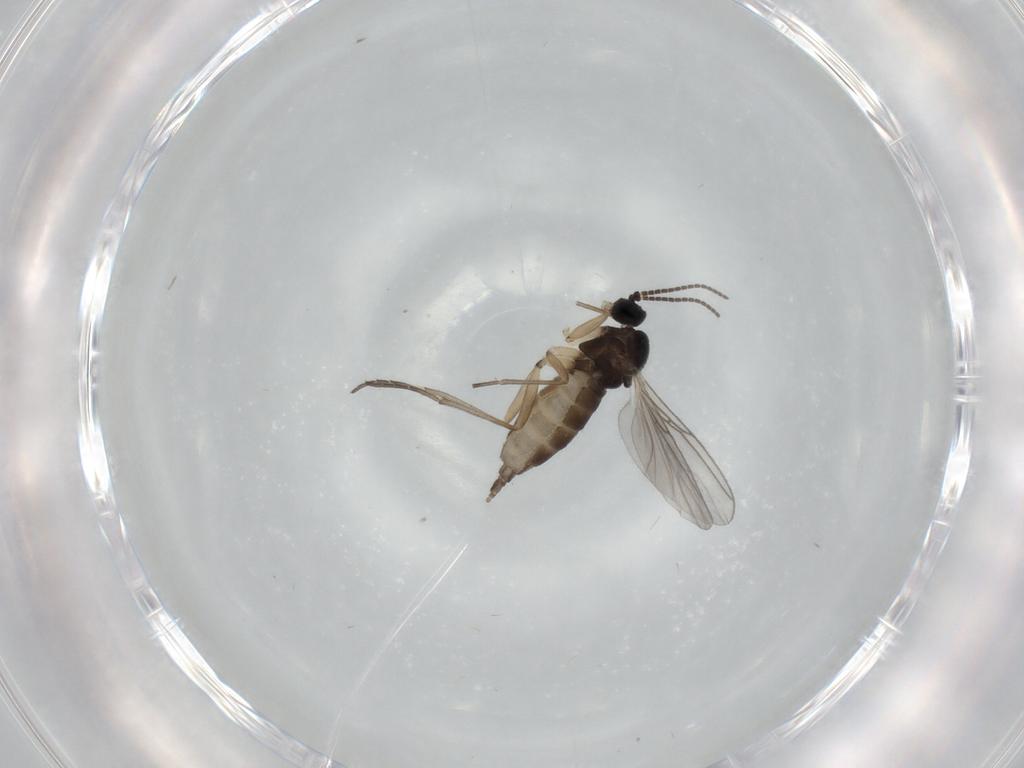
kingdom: Animalia
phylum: Arthropoda
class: Insecta
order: Diptera
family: Sciaridae
